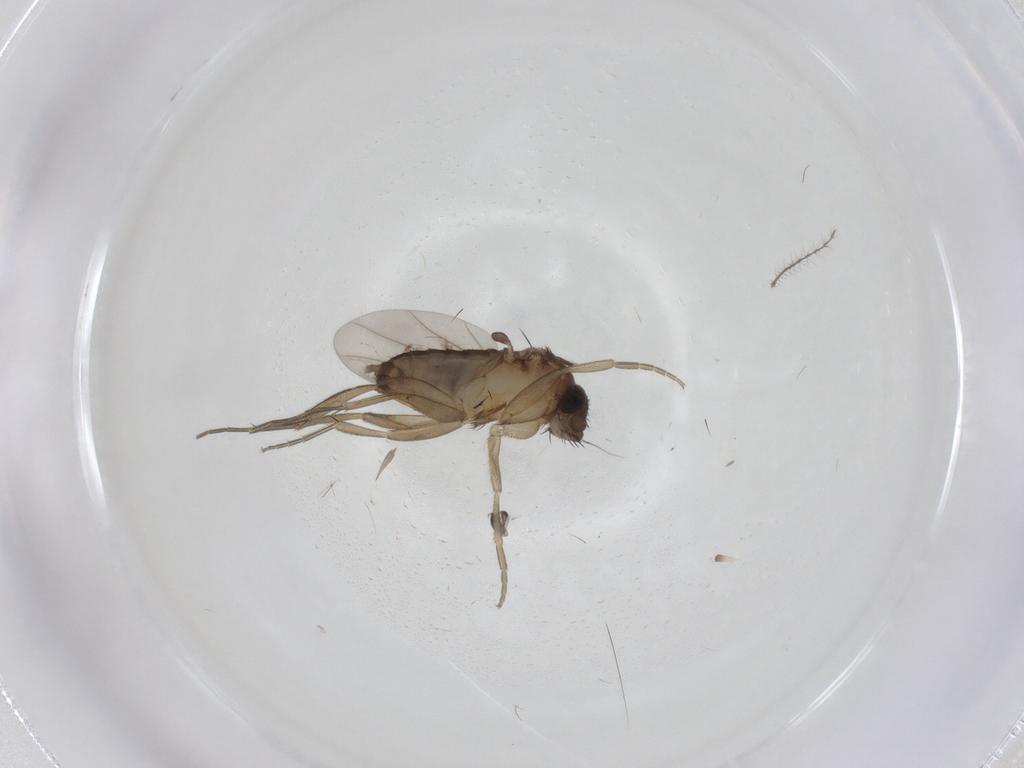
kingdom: Animalia
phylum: Arthropoda
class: Insecta
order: Diptera
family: Phoridae
